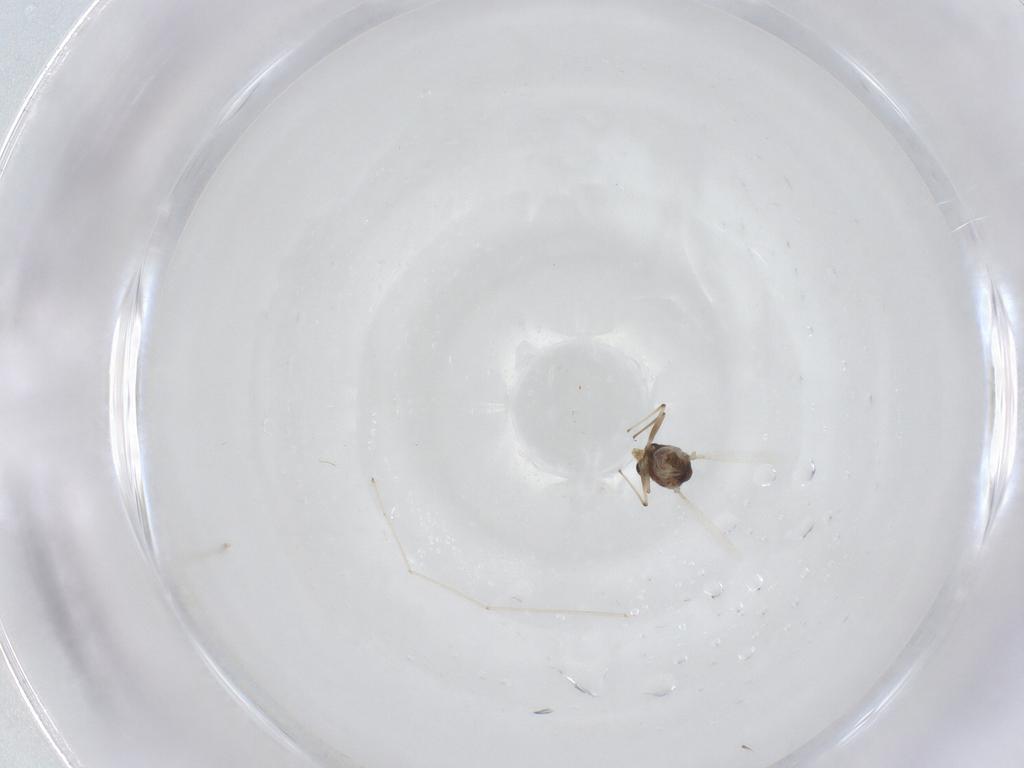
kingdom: Animalia
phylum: Arthropoda
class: Insecta
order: Diptera
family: Chironomidae
